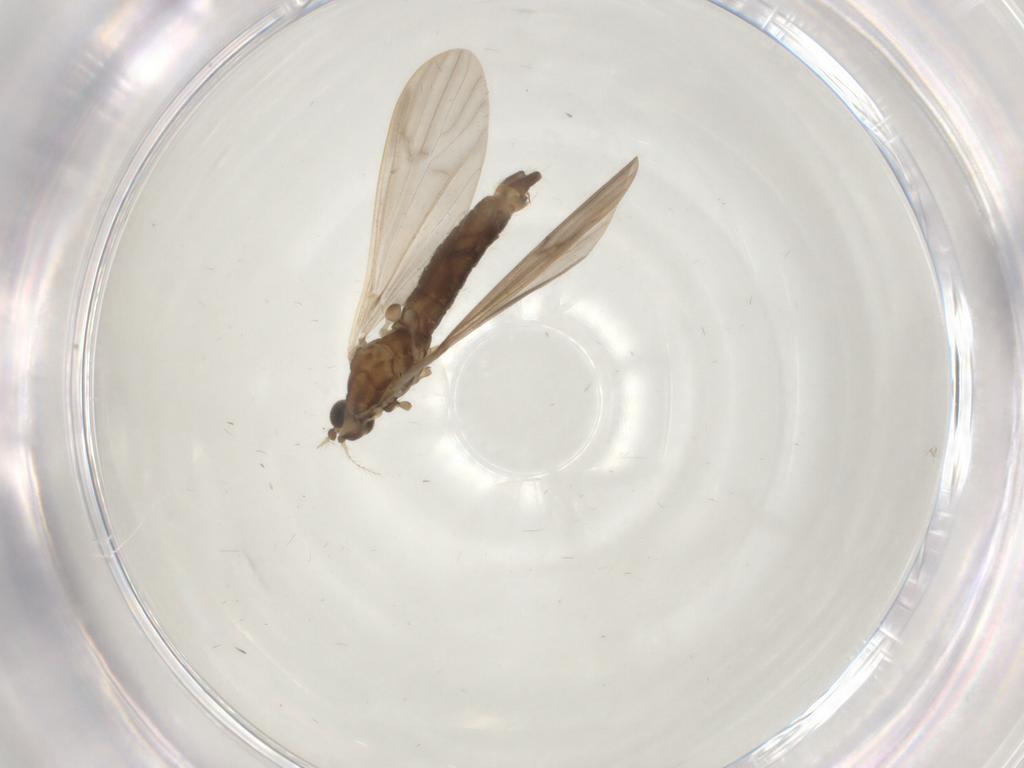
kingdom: Animalia
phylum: Arthropoda
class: Insecta
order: Diptera
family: Limoniidae
